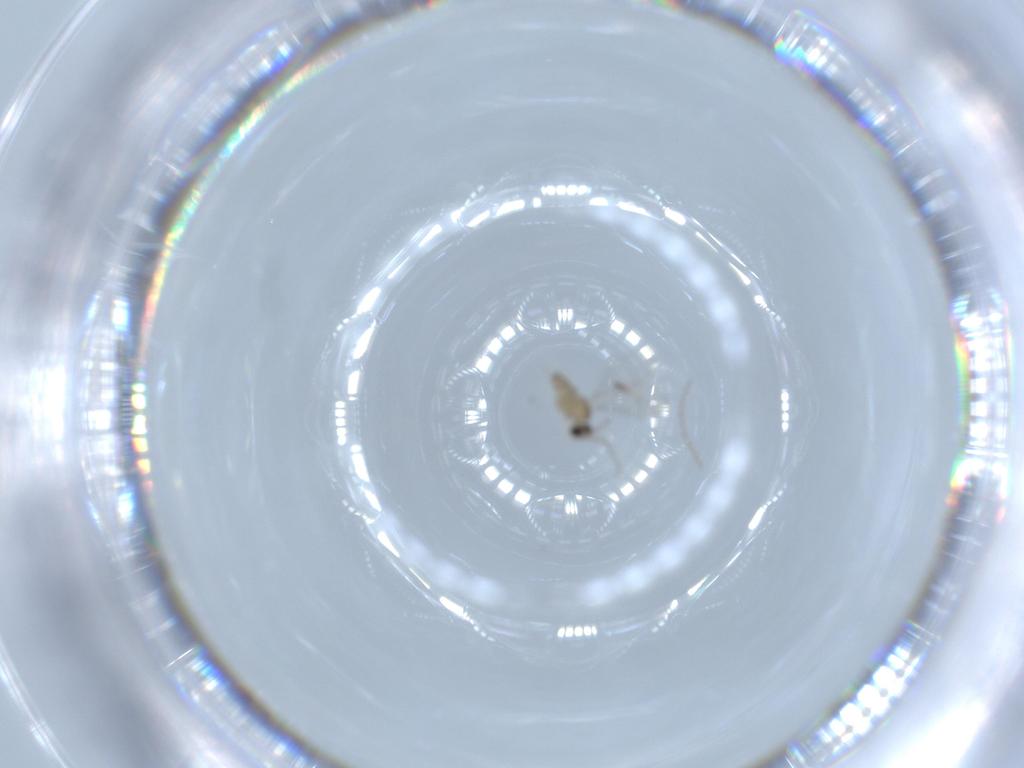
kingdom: Animalia
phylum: Arthropoda
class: Insecta
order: Diptera
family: Cecidomyiidae
